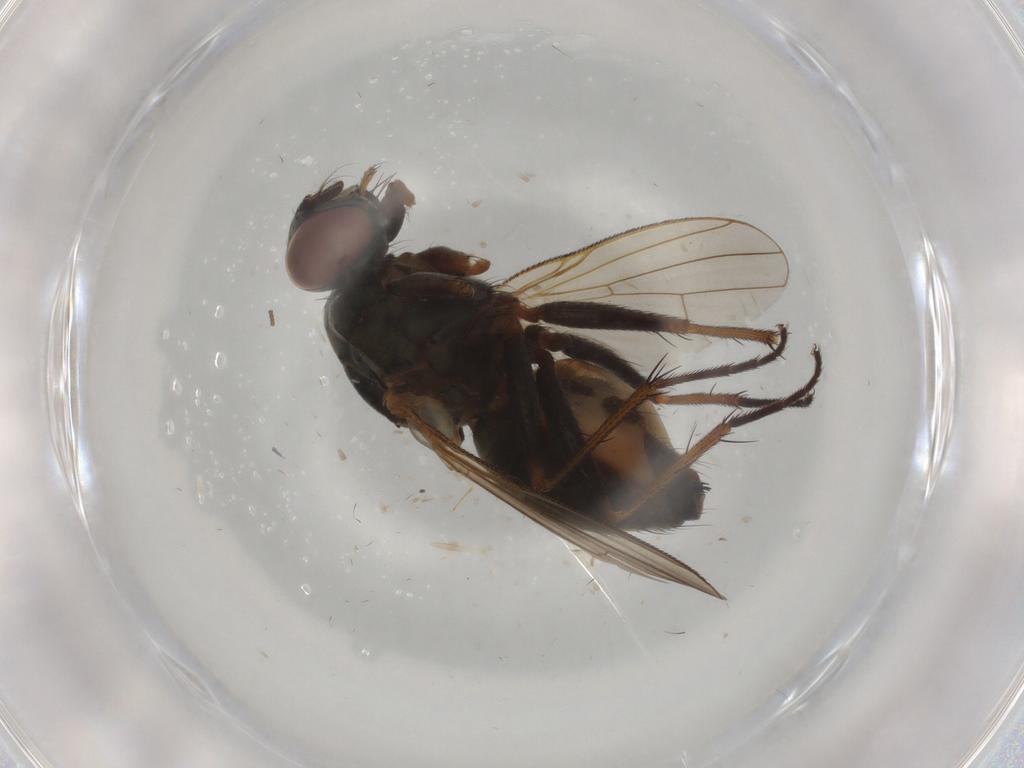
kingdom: Animalia
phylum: Arthropoda
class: Insecta
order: Diptera
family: Muscidae
